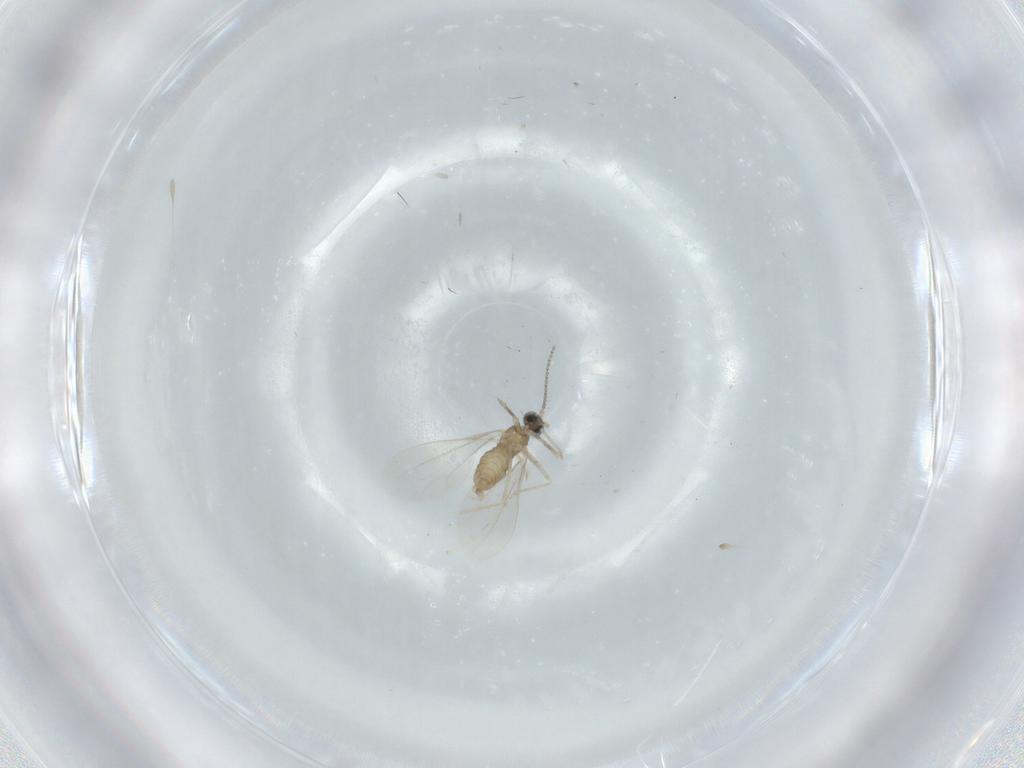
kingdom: Animalia
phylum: Arthropoda
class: Insecta
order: Diptera
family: Cecidomyiidae
